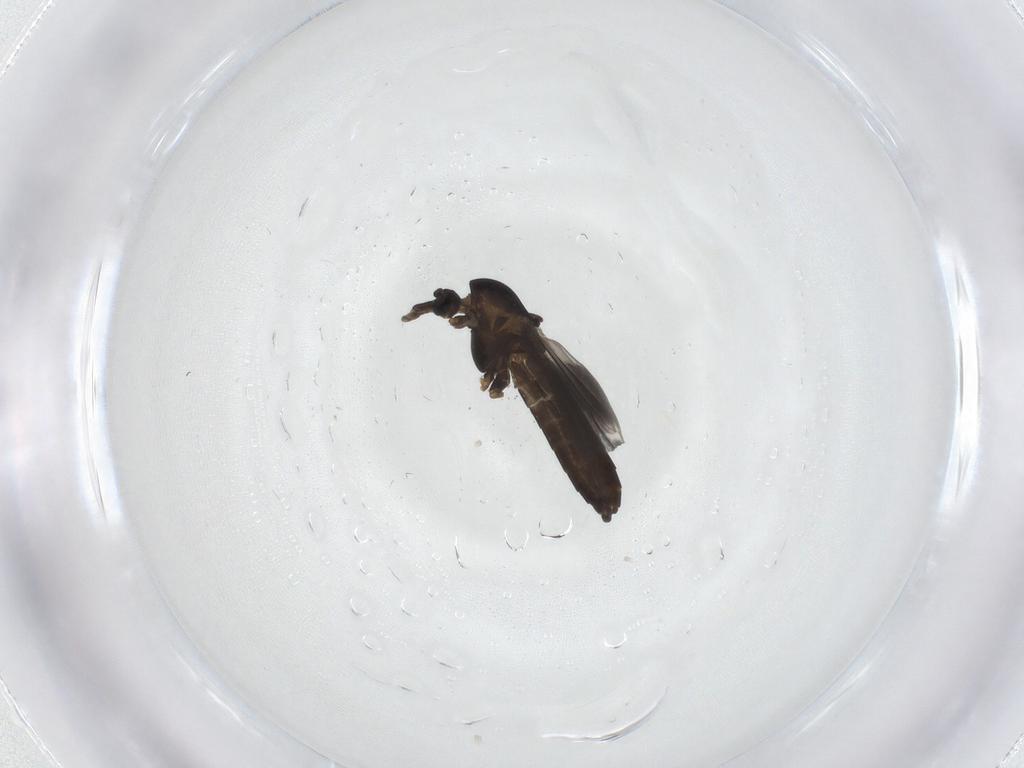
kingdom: Animalia
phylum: Arthropoda
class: Insecta
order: Diptera
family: Chironomidae
